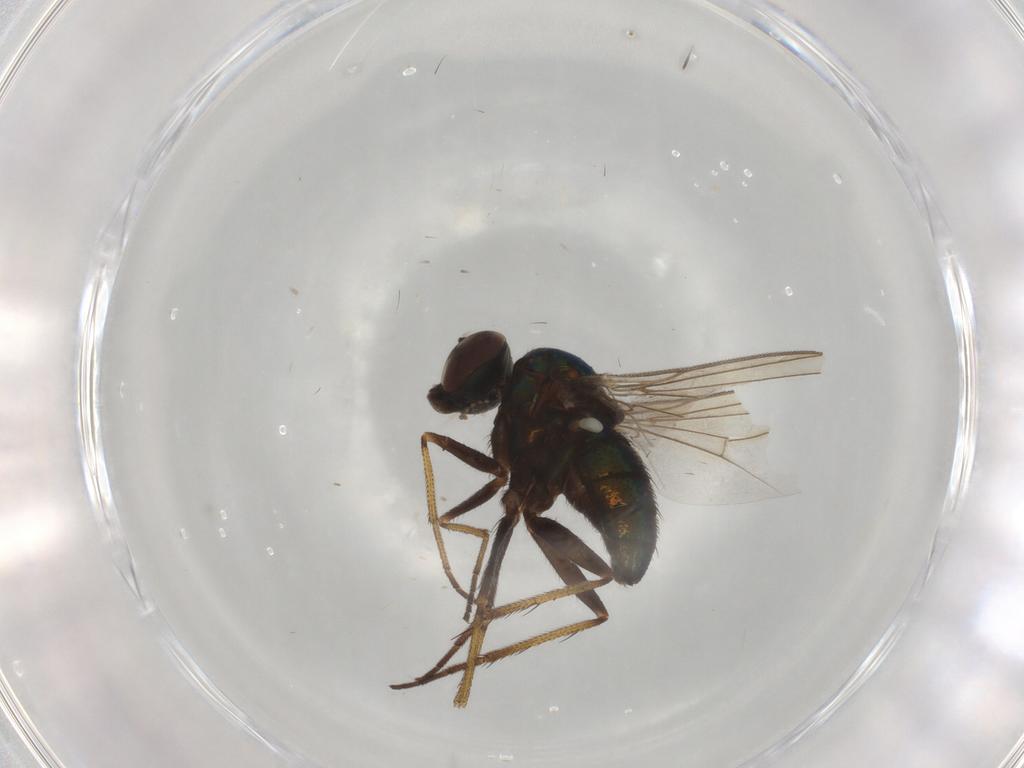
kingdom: Animalia
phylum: Arthropoda
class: Insecta
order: Diptera
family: Dolichopodidae
